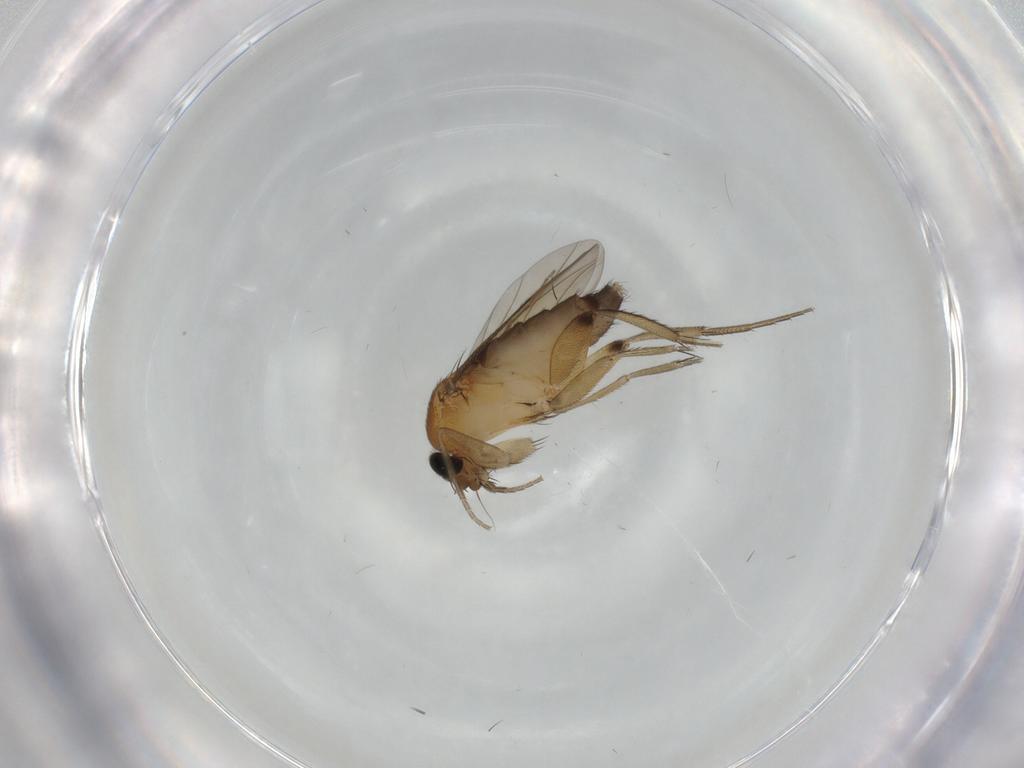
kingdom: Animalia
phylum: Arthropoda
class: Insecta
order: Diptera
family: Phoridae
